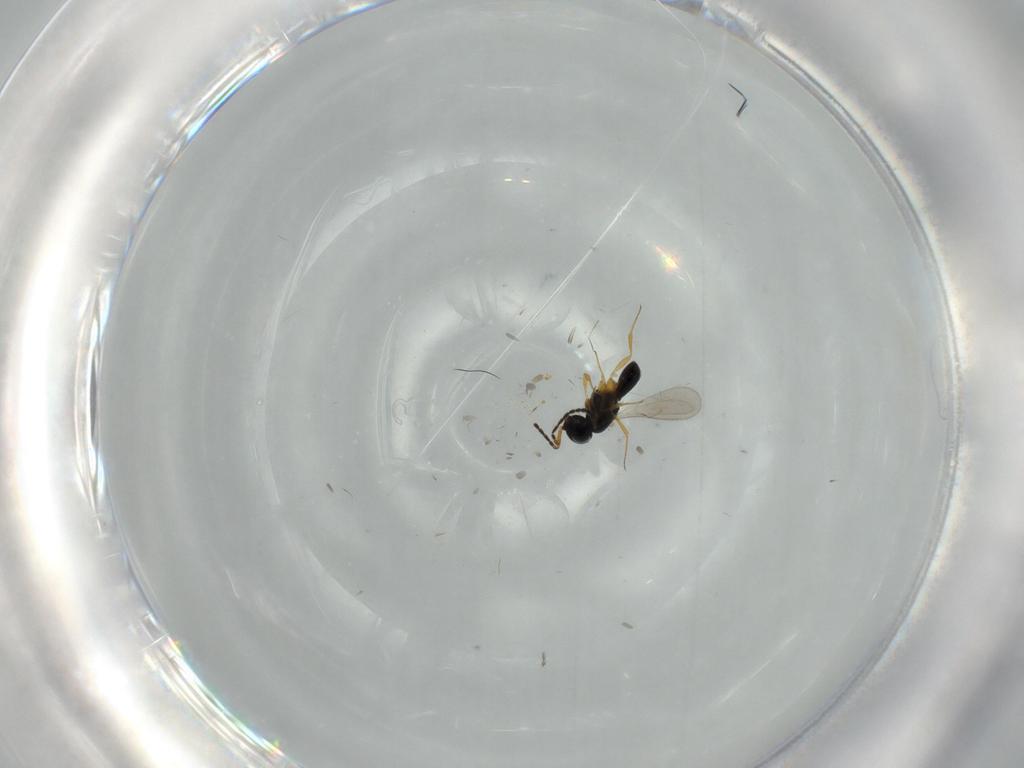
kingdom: Animalia
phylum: Arthropoda
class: Insecta
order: Hymenoptera
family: Scelionidae
